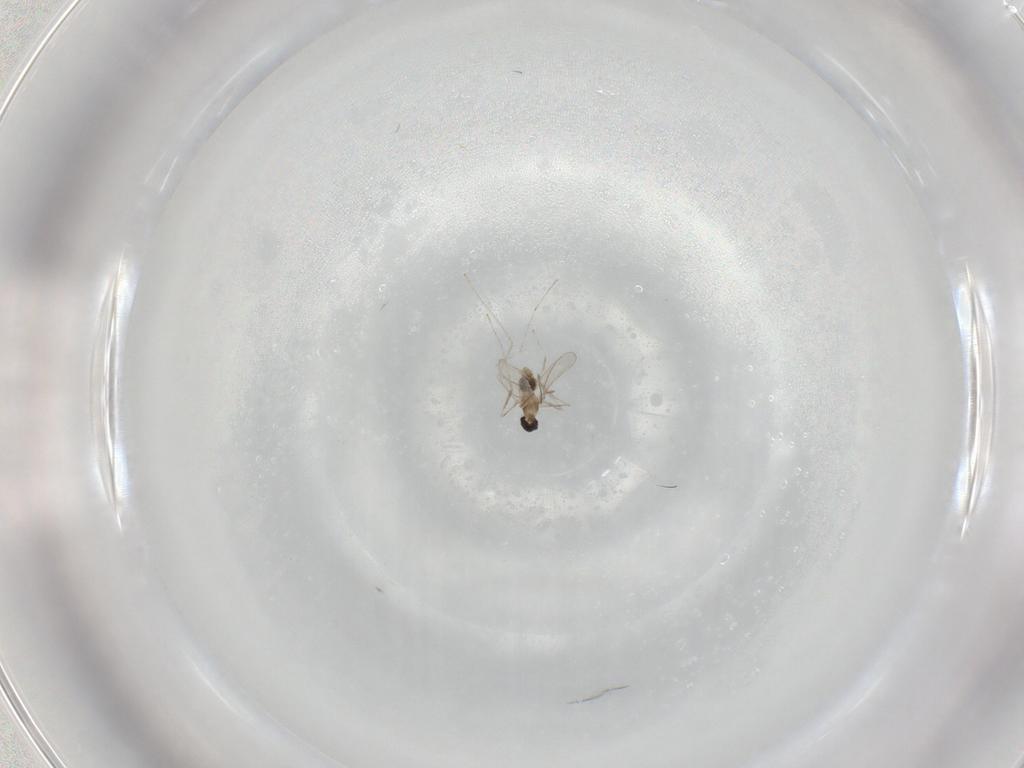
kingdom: Animalia
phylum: Arthropoda
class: Insecta
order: Diptera
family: Cecidomyiidae
